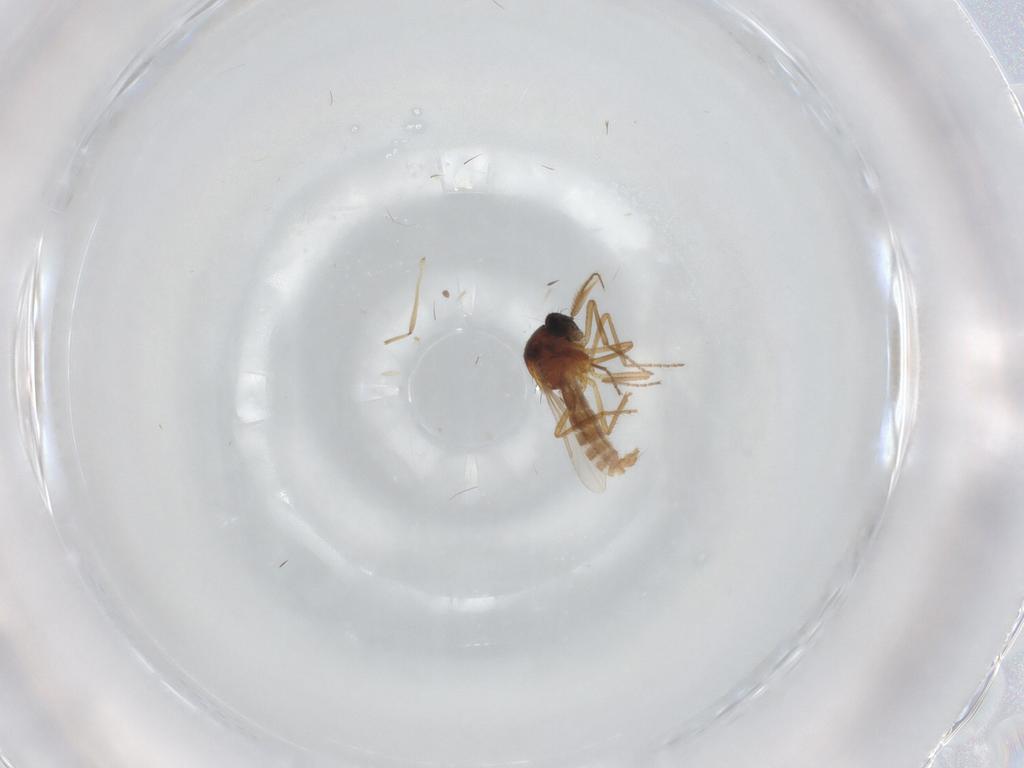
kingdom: Animalia
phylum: Arthropoda
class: Insecta
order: Diptera
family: Ceratopogonidae
